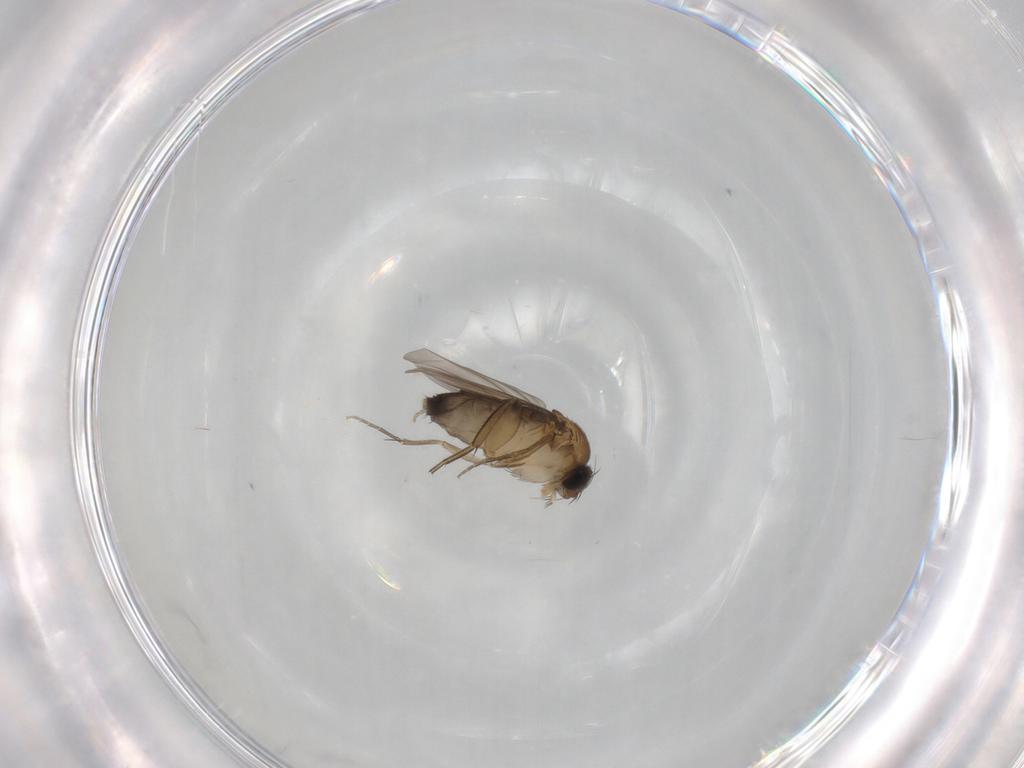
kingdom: Animalia
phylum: Arthropoda
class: Insecta
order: Diptera
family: Phoridae
